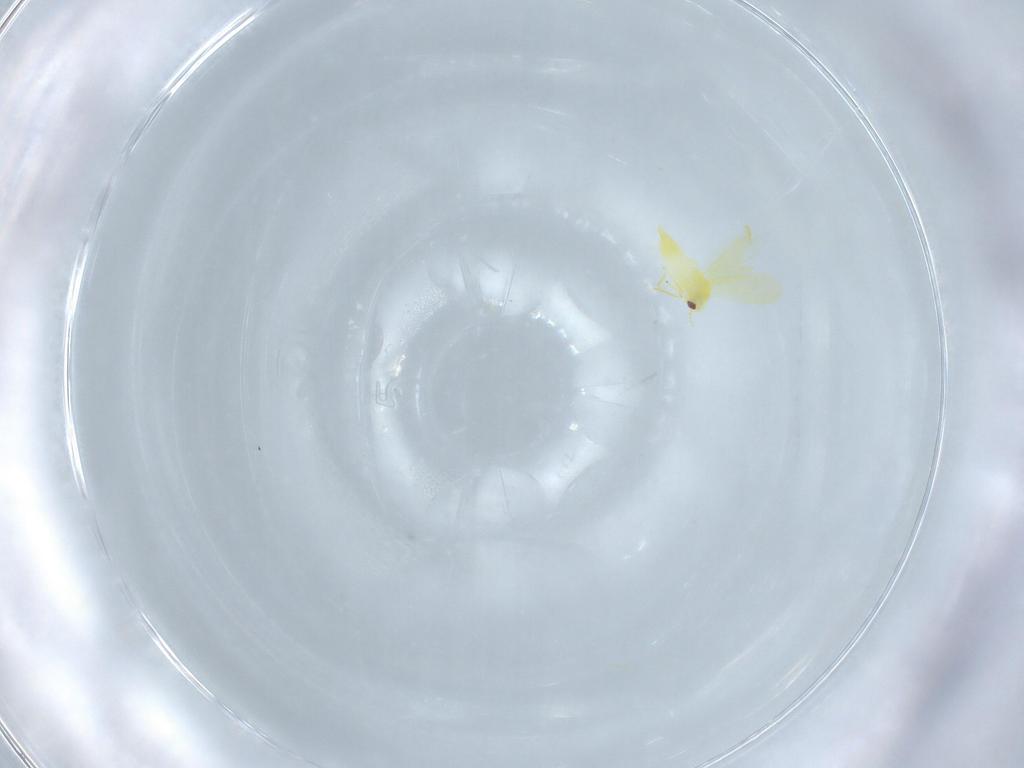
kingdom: Animalia
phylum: Arthropoda
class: Insecta
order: Hemiptera
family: Aleyrodidae
